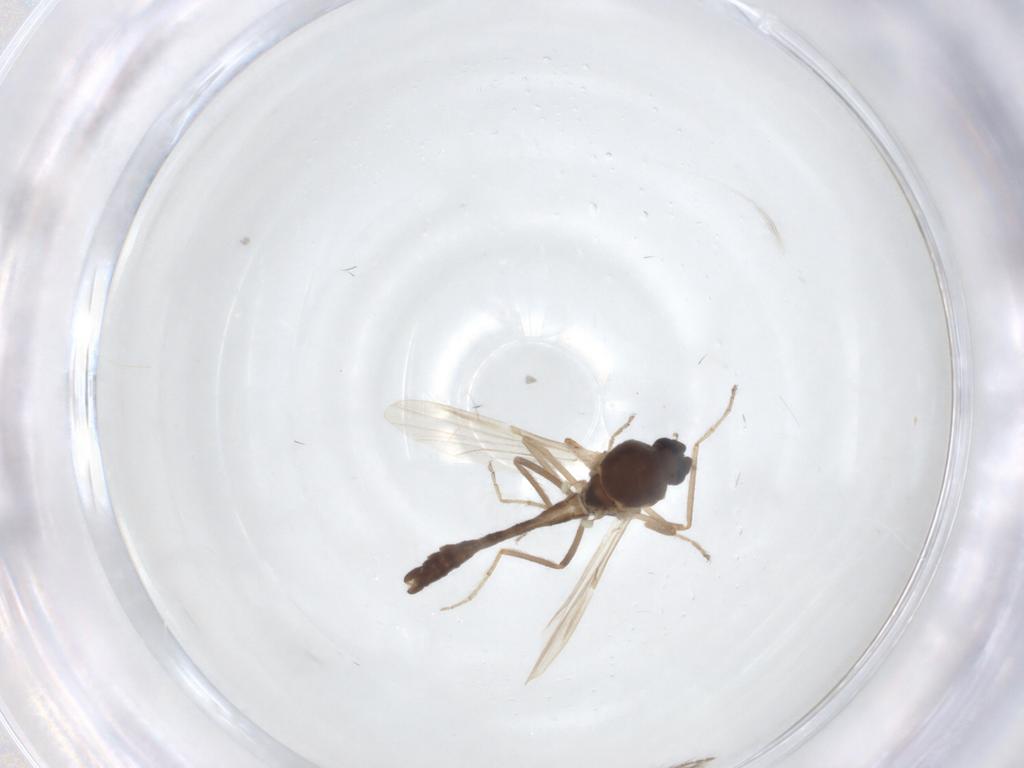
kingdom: Animalia
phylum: Arthropoda
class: Insecta
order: Diptera
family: Ceratopogonidae
